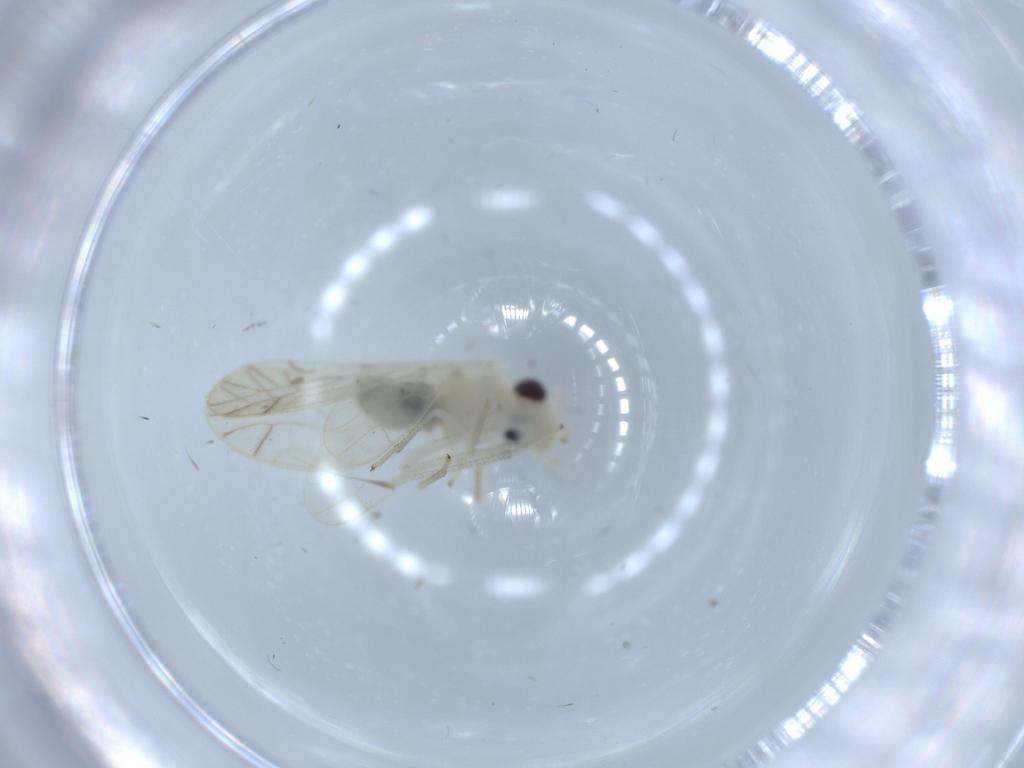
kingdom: Animalia
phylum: Arthropoda
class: Insecta
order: Psocodea
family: Caeciliusidae
